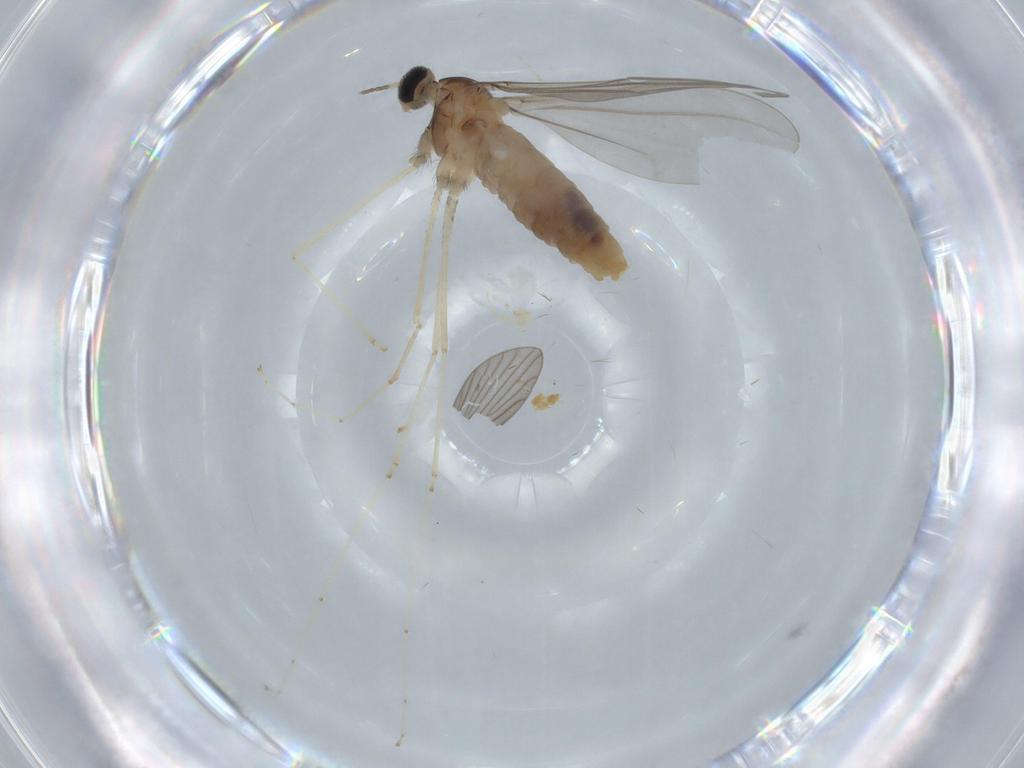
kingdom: Animalia
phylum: Arthropoda
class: Insecta
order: Diptera
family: Cecidomyiidae
